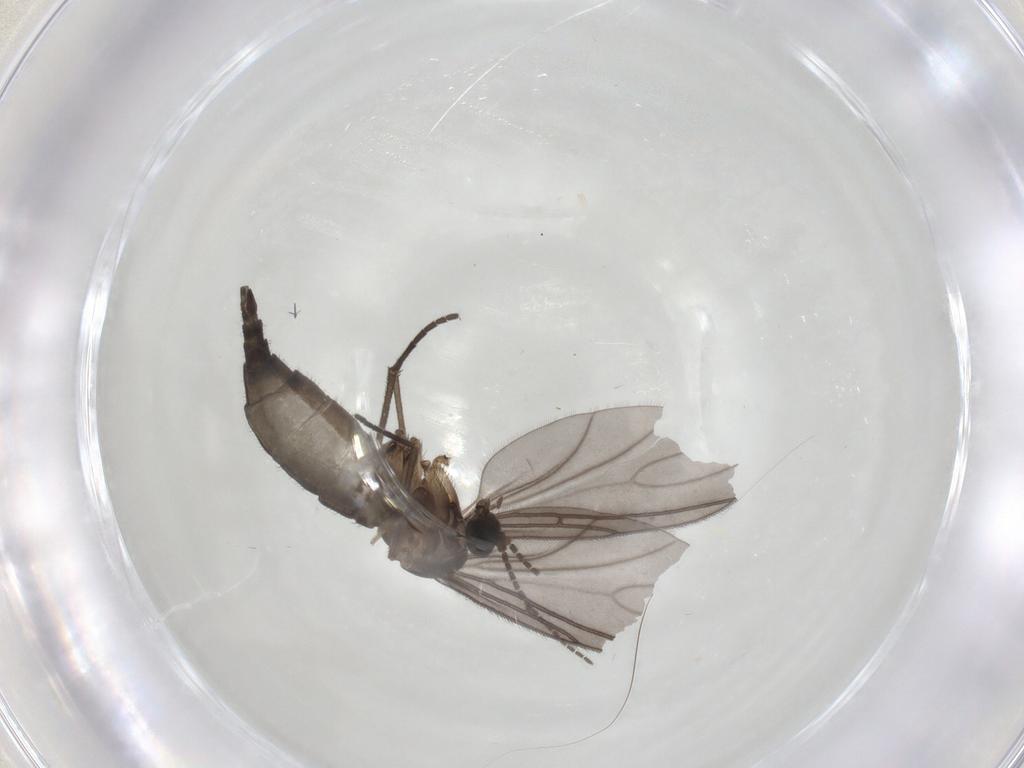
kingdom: Animalia
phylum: Arthropoda
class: Insecta
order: Diptera
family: Sciaridae
